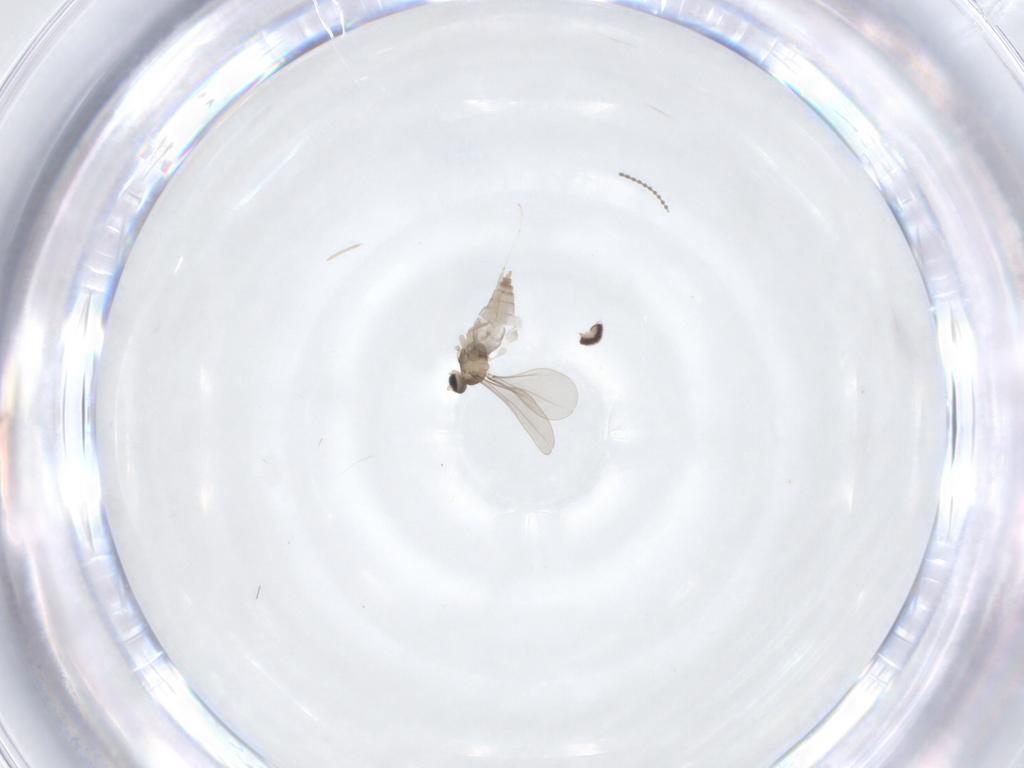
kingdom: Animalia
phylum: Arthropoda
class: Insecta
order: Diptera
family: Cecidomyiidae
